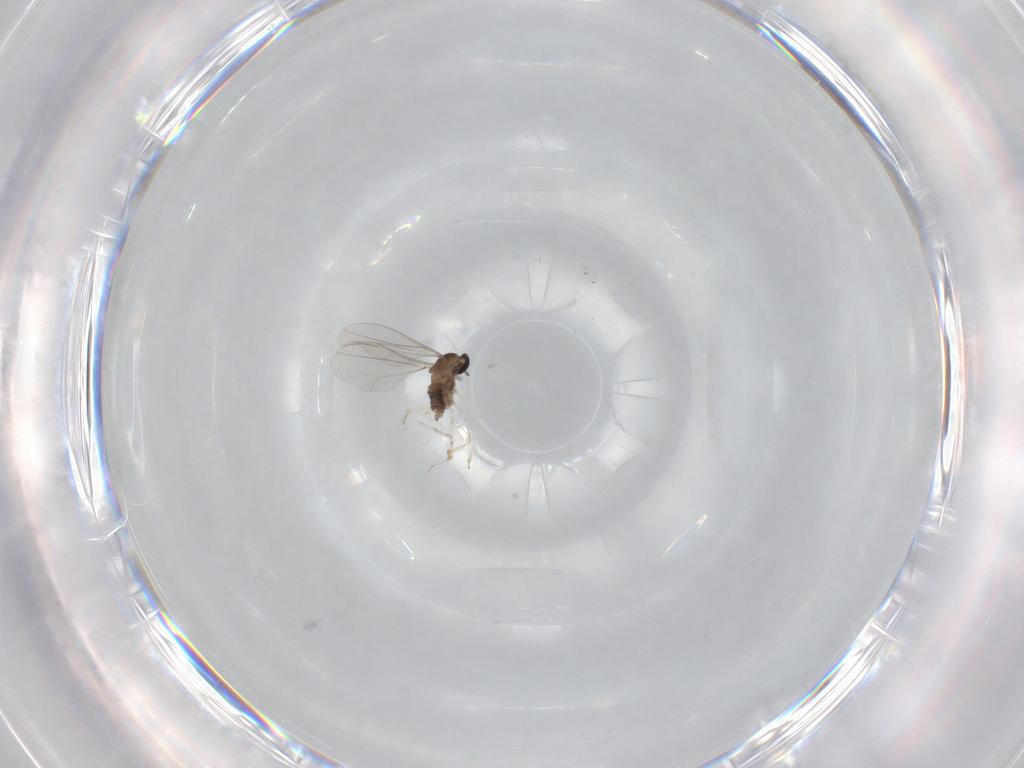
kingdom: Animalia
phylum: Arthropoda
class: Insecta
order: Diptera
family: Cecidomyiidae
